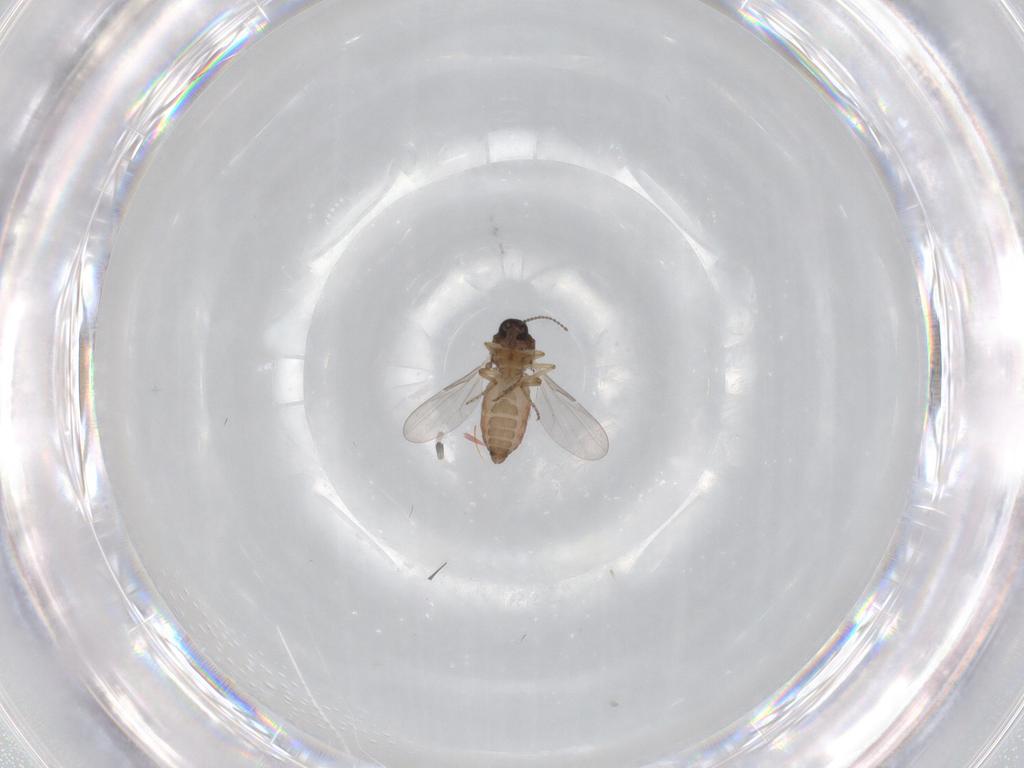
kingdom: Animalia
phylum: Arthropoda
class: Insecta
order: Diptera
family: Ceratopogonidae
